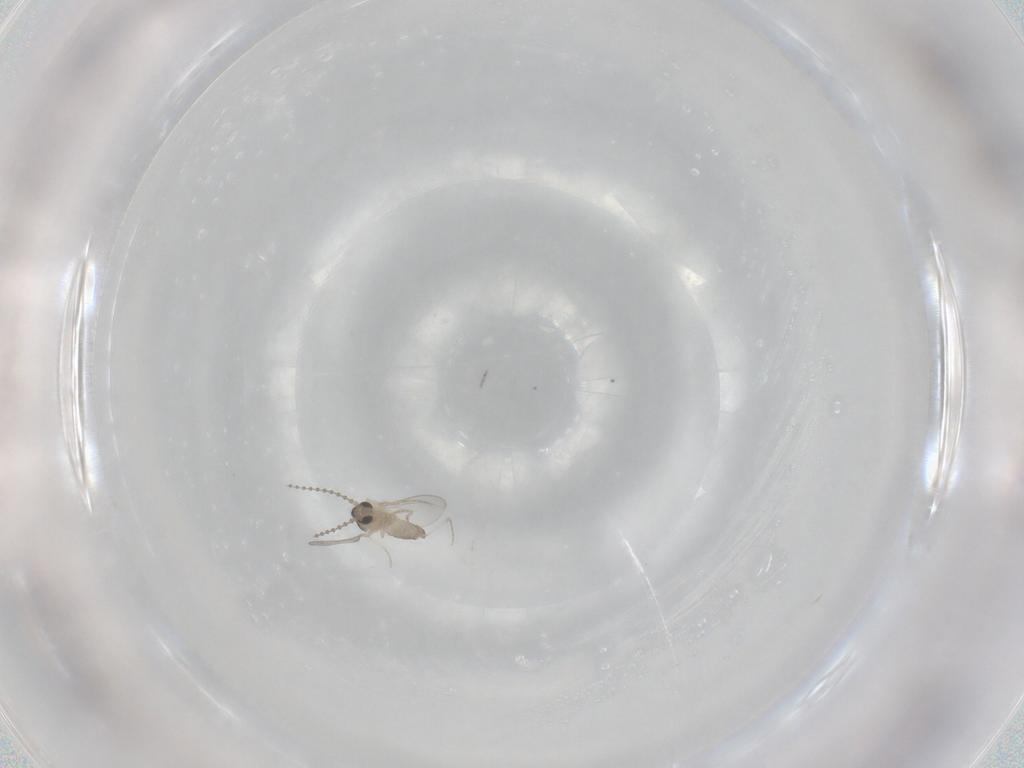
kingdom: Animalia
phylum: Arthropoda
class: Insecta
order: Diptera
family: Cecidomyiidae
